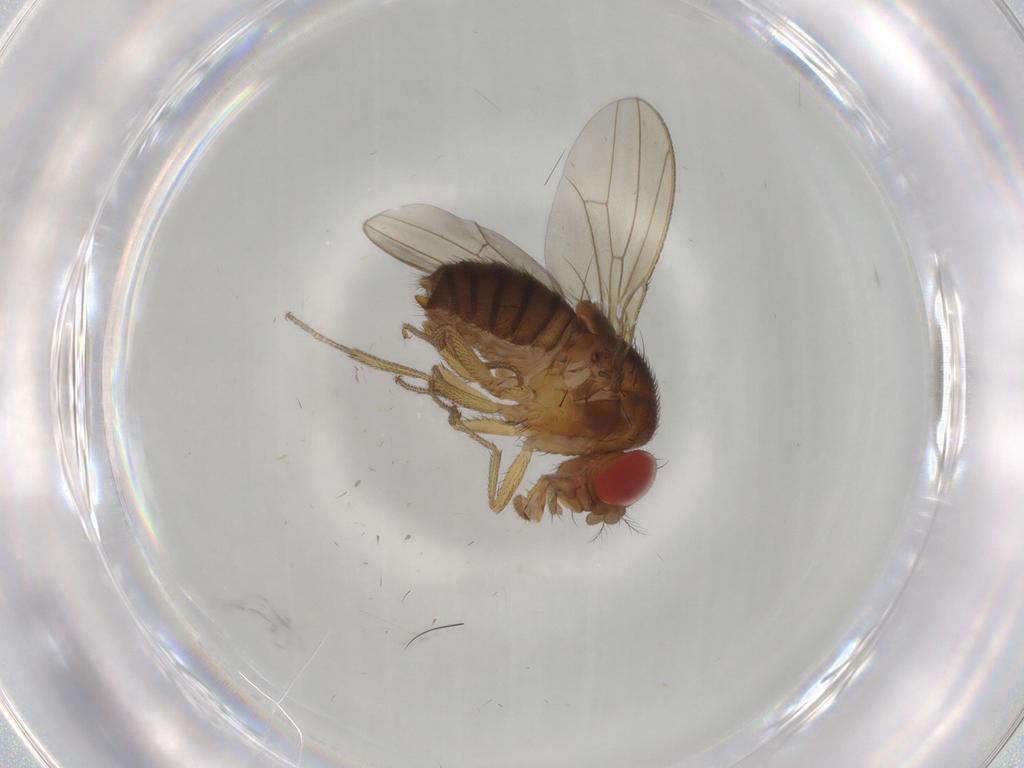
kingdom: Animalia
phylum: Arthropoda
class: Insecta
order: Diptera
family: Drosophilidae
